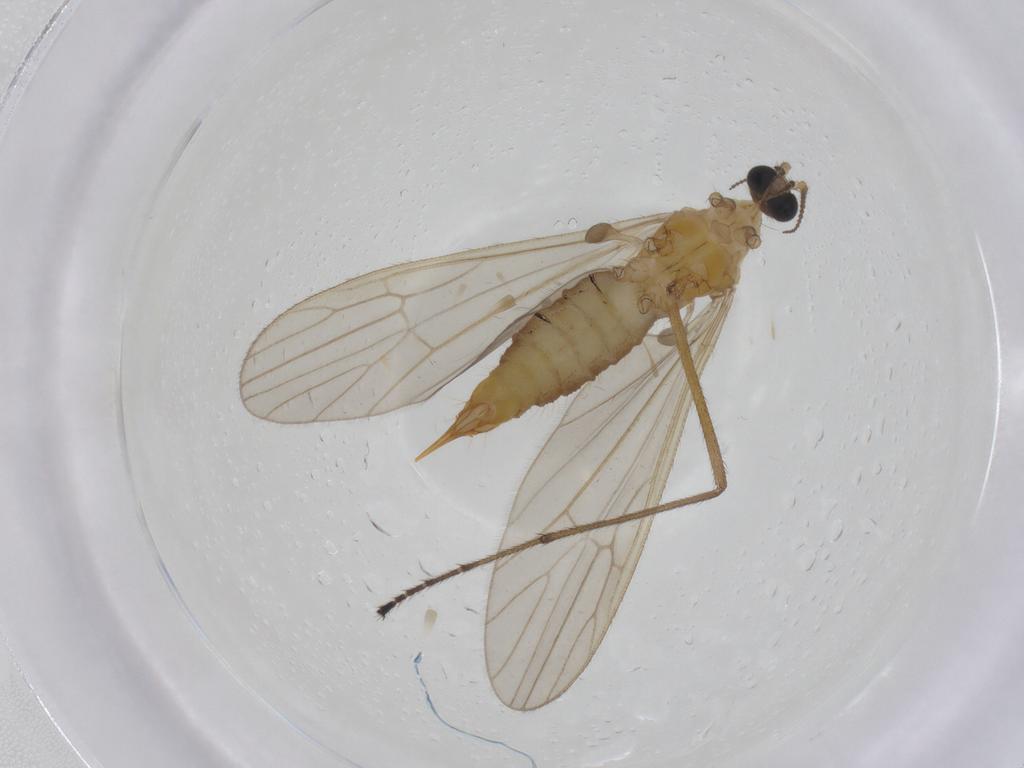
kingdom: Animalia
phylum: Arthropoda
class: Insecta
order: Diptera
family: Limoniidae
